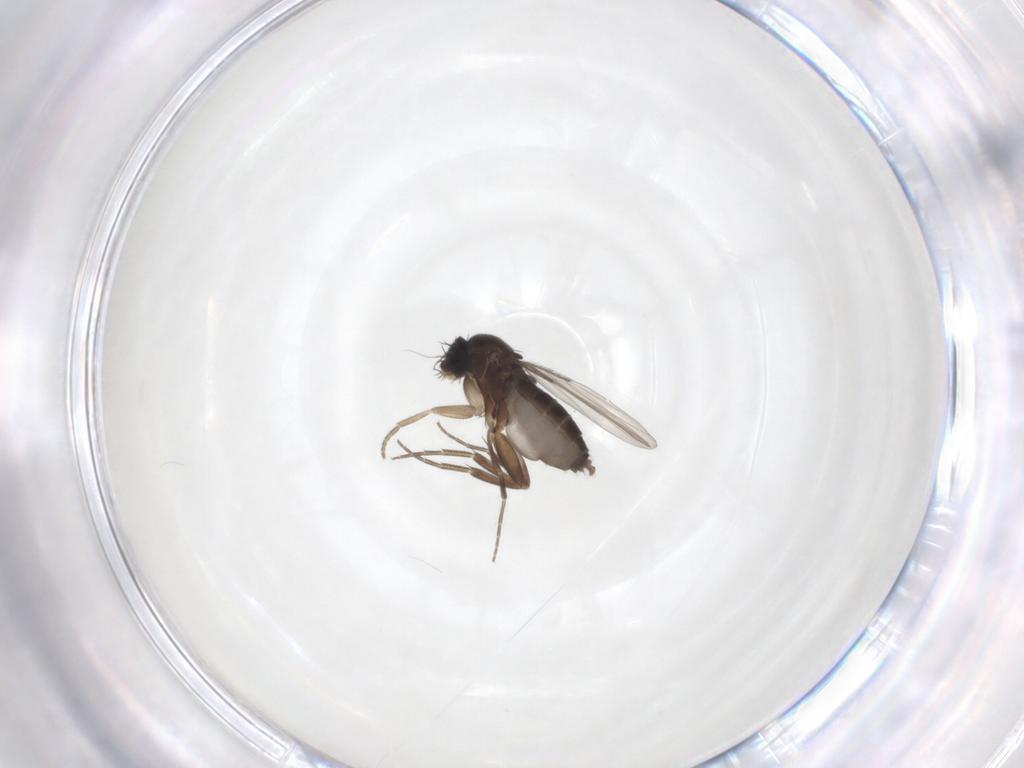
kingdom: Animalia
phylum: Arthropoda
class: Insecta
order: Diptera
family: Phoridae
